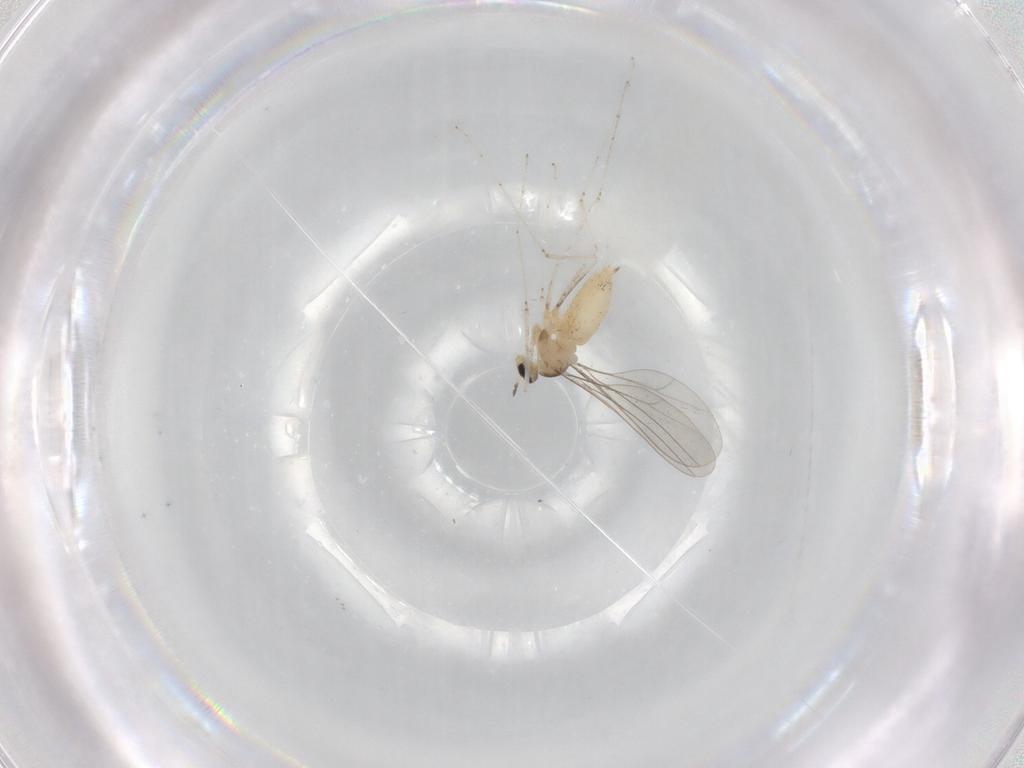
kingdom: Animalia
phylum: Arthropoda
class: Insecta
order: Diptera
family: Cecidomyiidae
